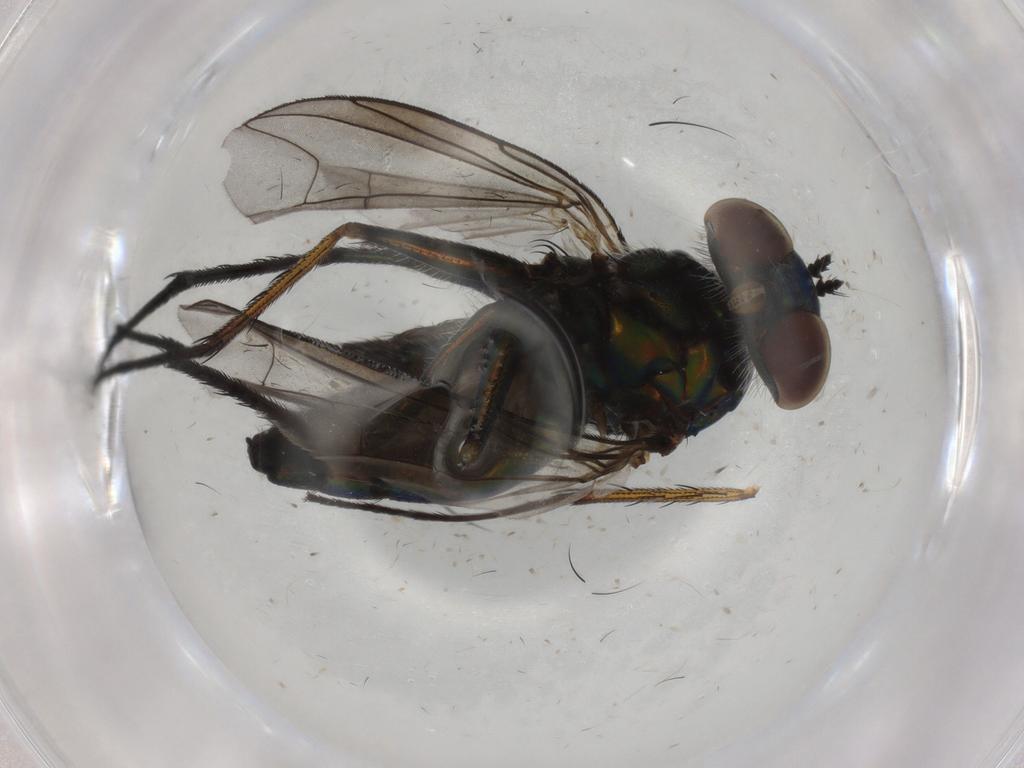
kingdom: Animalia
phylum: Arthropoda
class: Insecta
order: Diptera
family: Dolichopodidae
